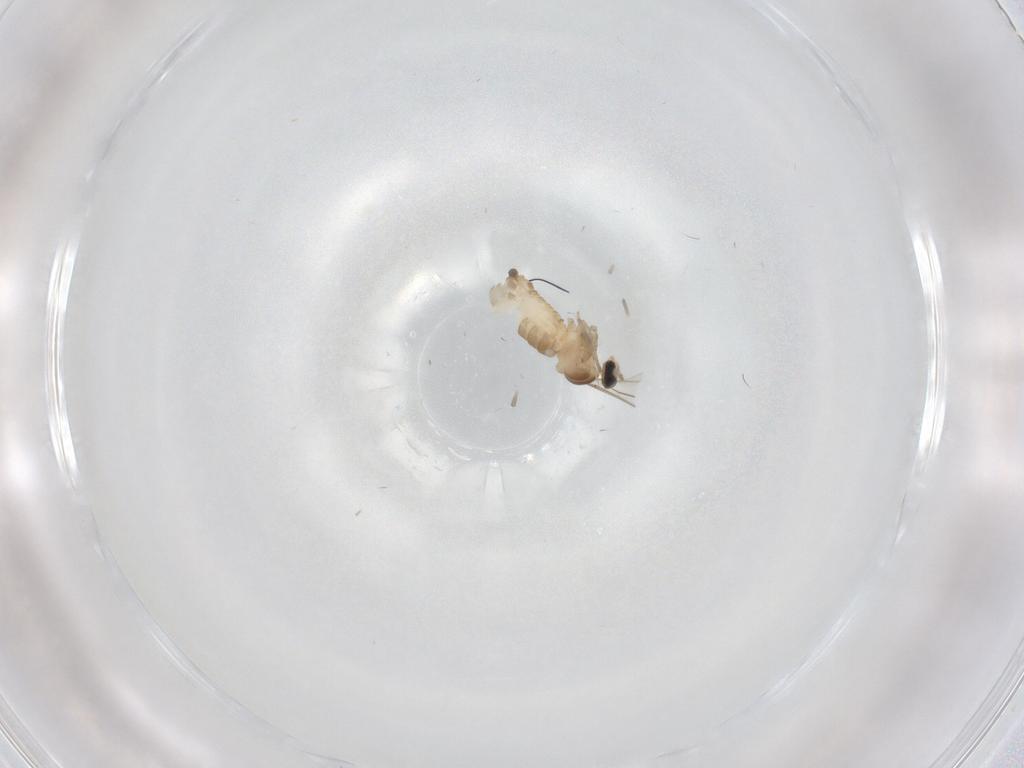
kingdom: Animalia
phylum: Arthropoda
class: Insecta
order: Diptera
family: Cecidomyiidae
